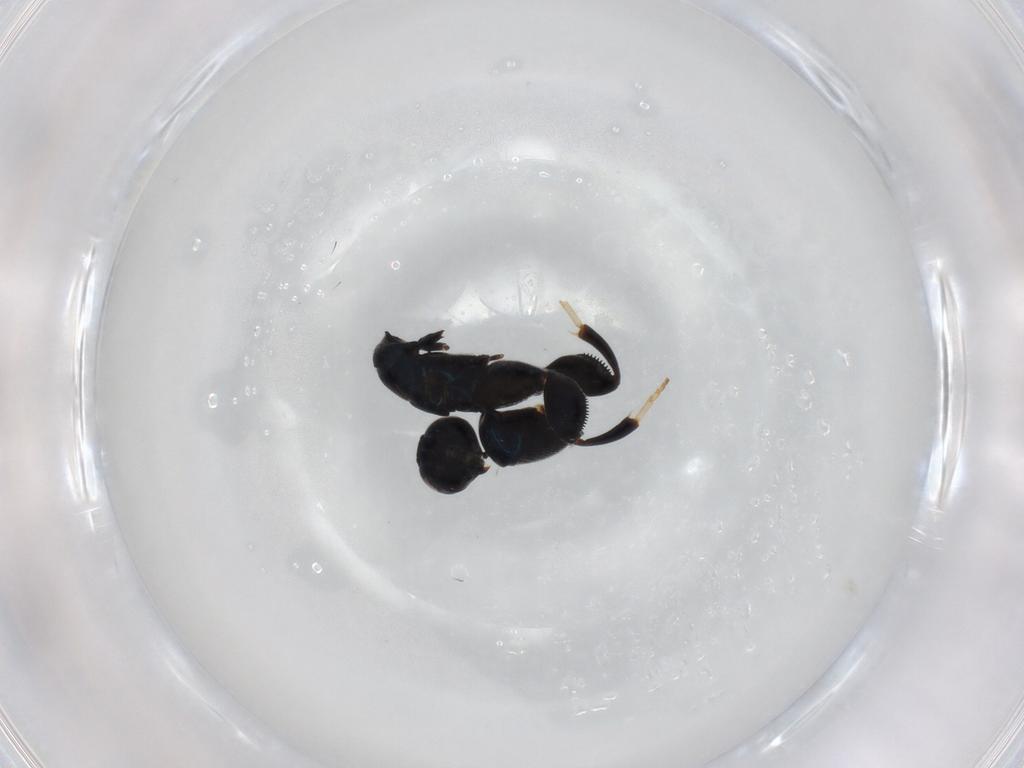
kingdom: Animalia
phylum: Arthropoda
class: Insecta
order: Hymenoptera
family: Torymidae
